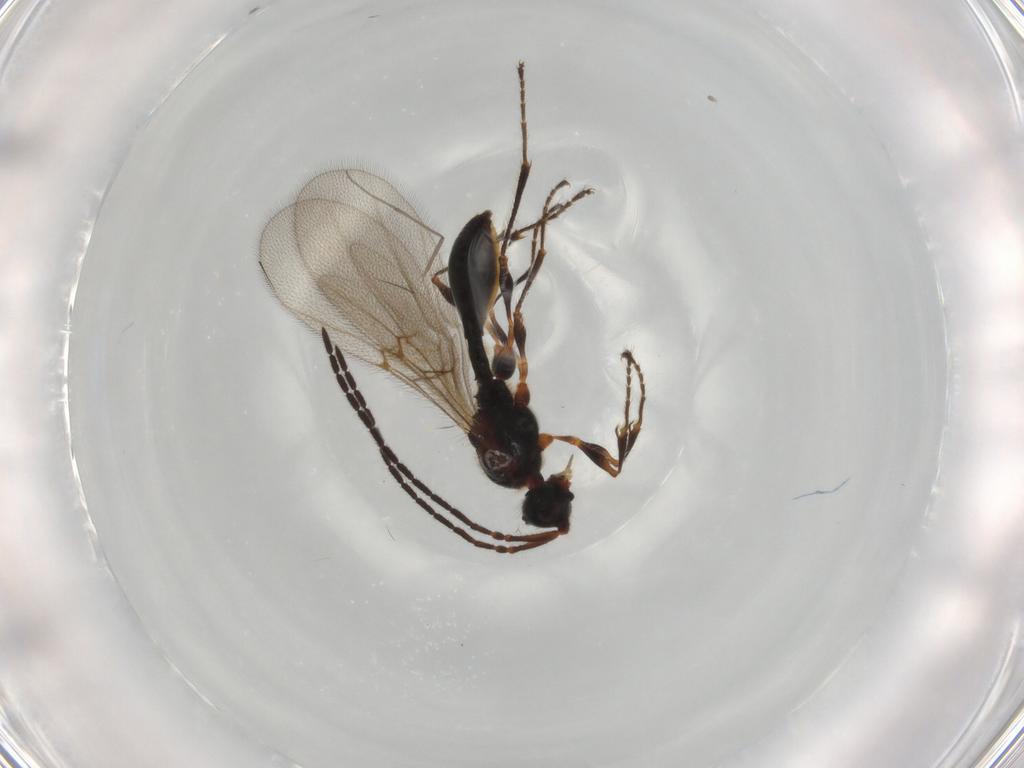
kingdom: Animalia
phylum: Arthropoda
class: Insecta
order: Hymenoptera
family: Diapriidae
